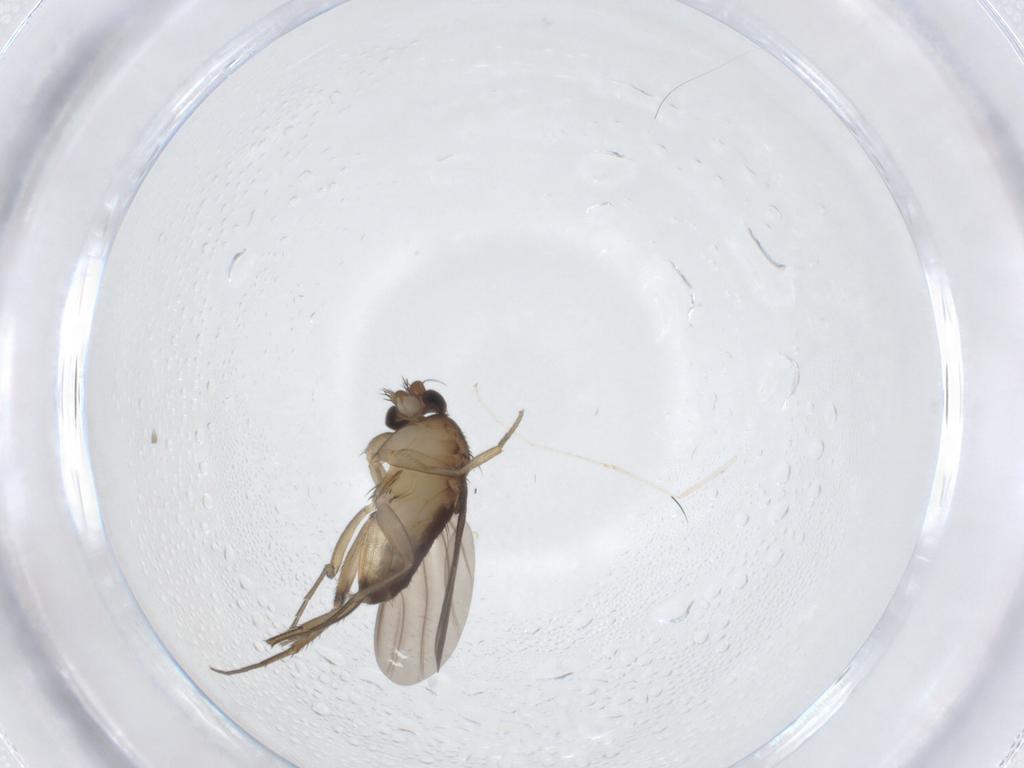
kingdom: Animalia
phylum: Arthropoda
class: Insecta
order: Diptera
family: Phoridae
